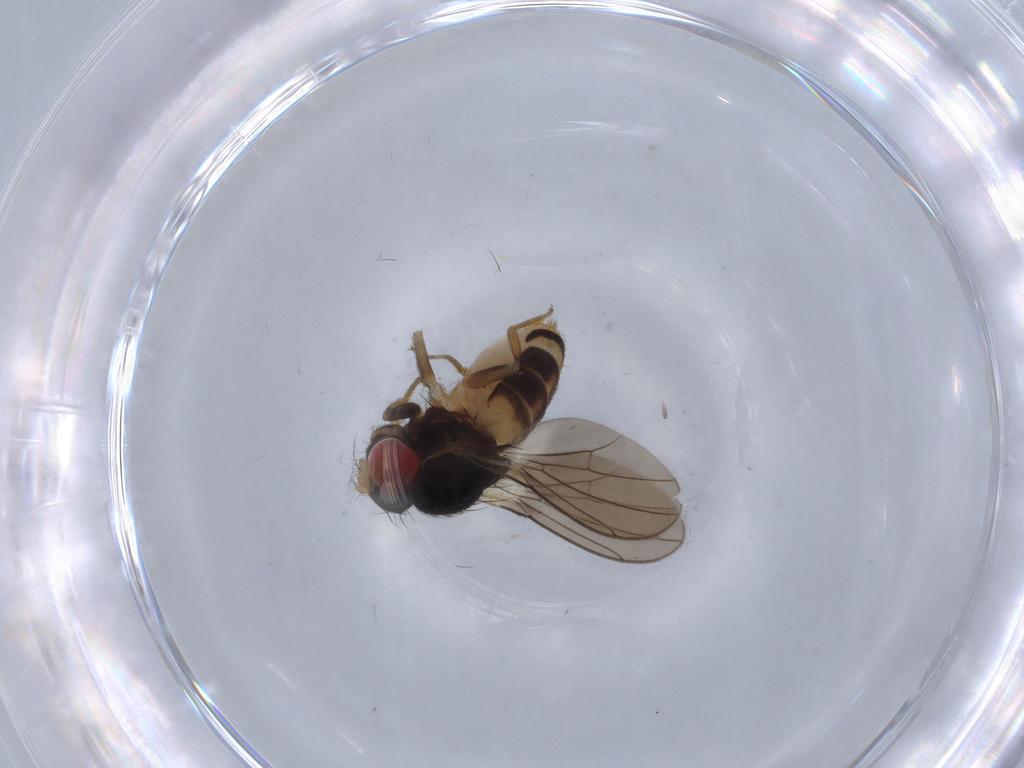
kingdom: Animalia
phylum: Arthropoda
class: Insecta
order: Diptera
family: Drosophilidae
